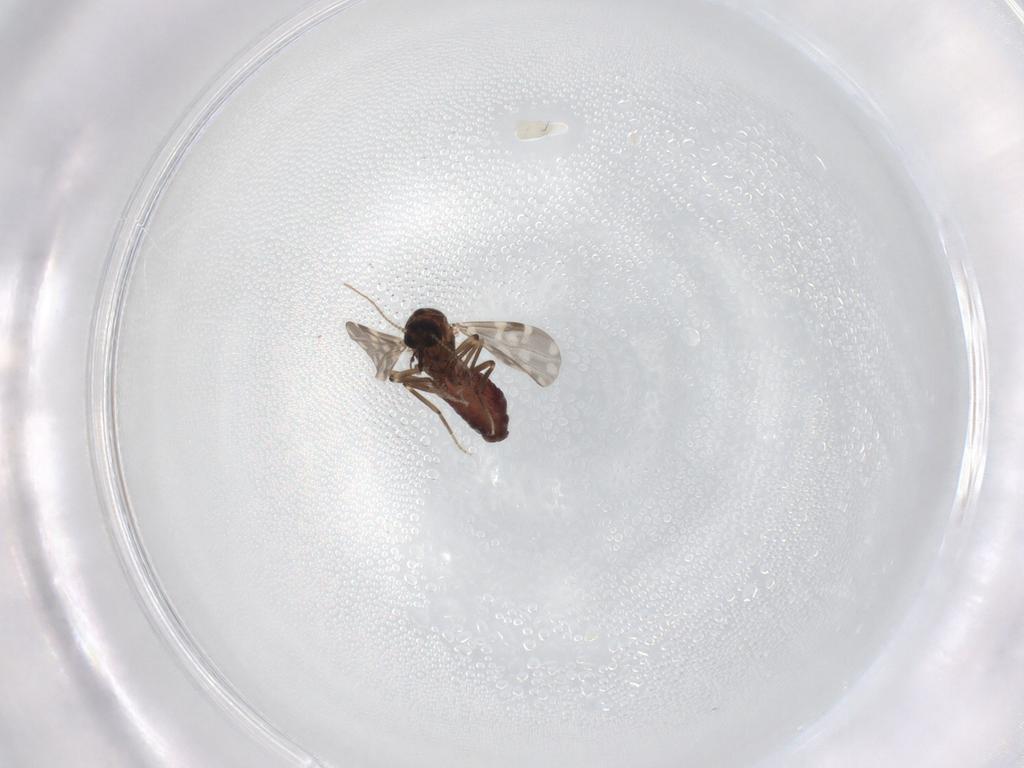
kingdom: Animalia
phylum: Arthropoda
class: Insecta
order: Diptera
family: Ceratopogonidae
